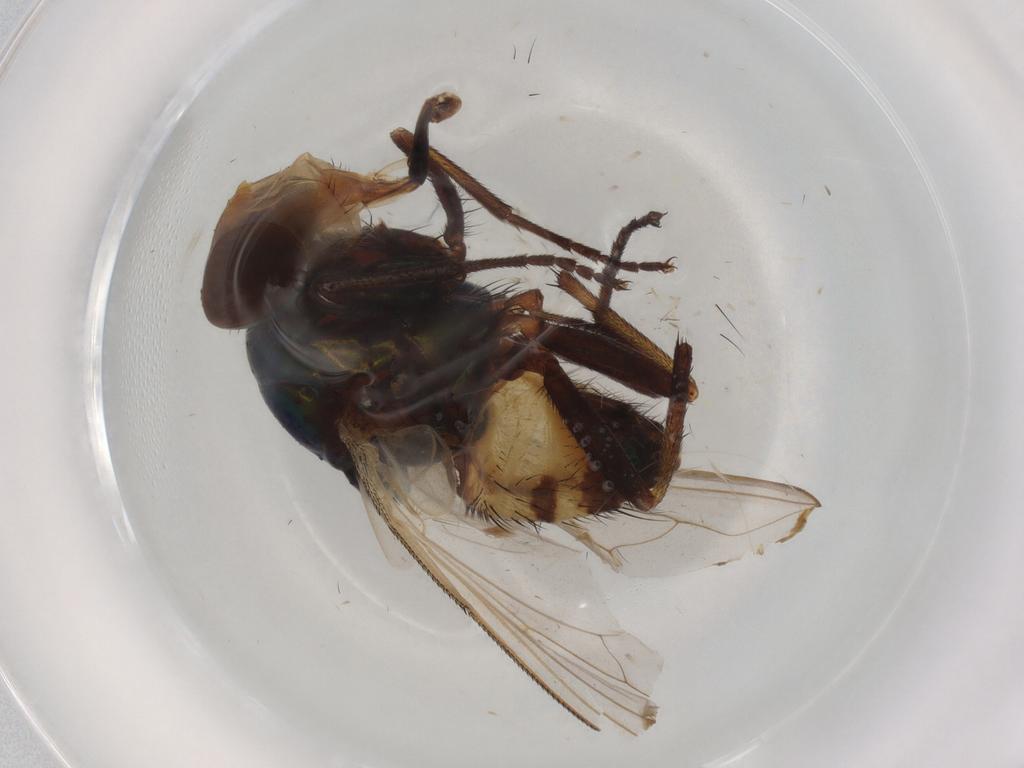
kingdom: Animalia
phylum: Arthropoda
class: Insecta
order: Diptera
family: Calliphoridae
